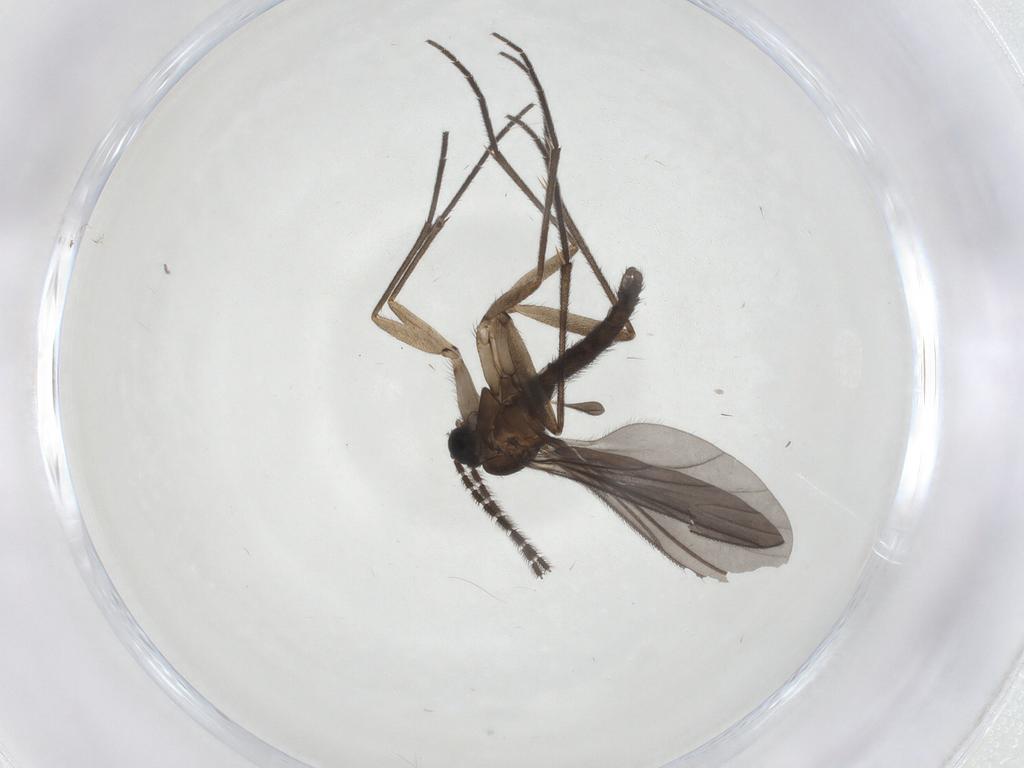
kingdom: Animalia
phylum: Arthropoda
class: Insecta
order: Diptera
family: Sciaridae
